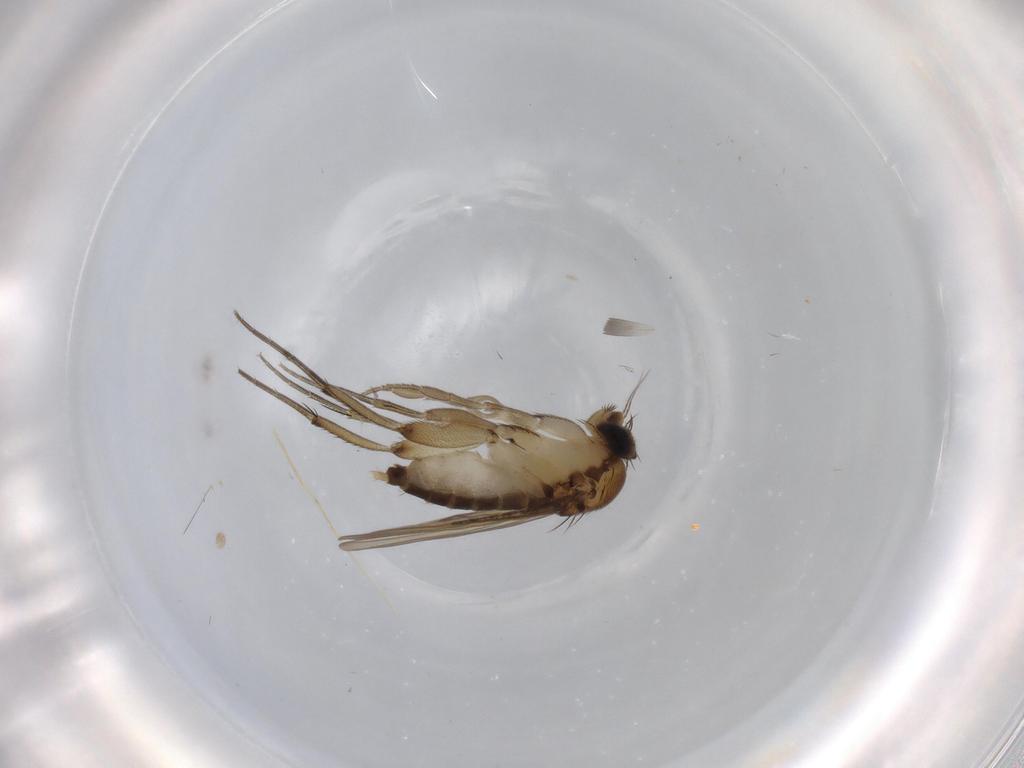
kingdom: Animalia
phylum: Arthropoda
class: Insecta
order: Diptera
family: Phoridae
